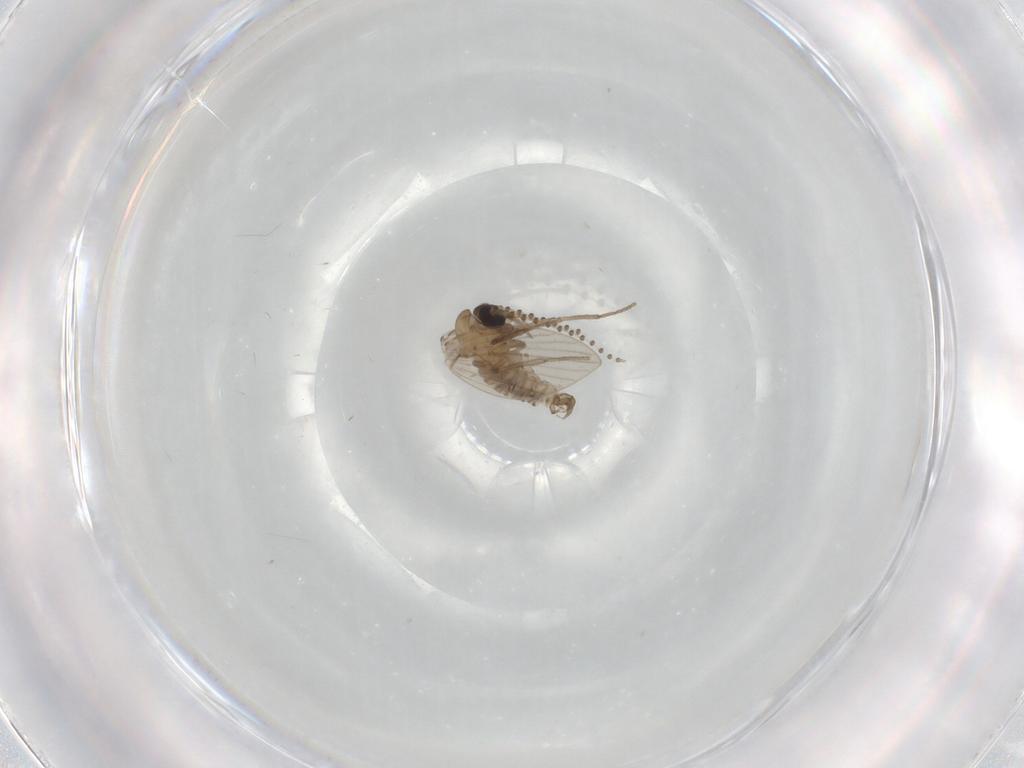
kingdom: Animalia
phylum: Arthropoda
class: Insecta
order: Diptera
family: Psychodidae
